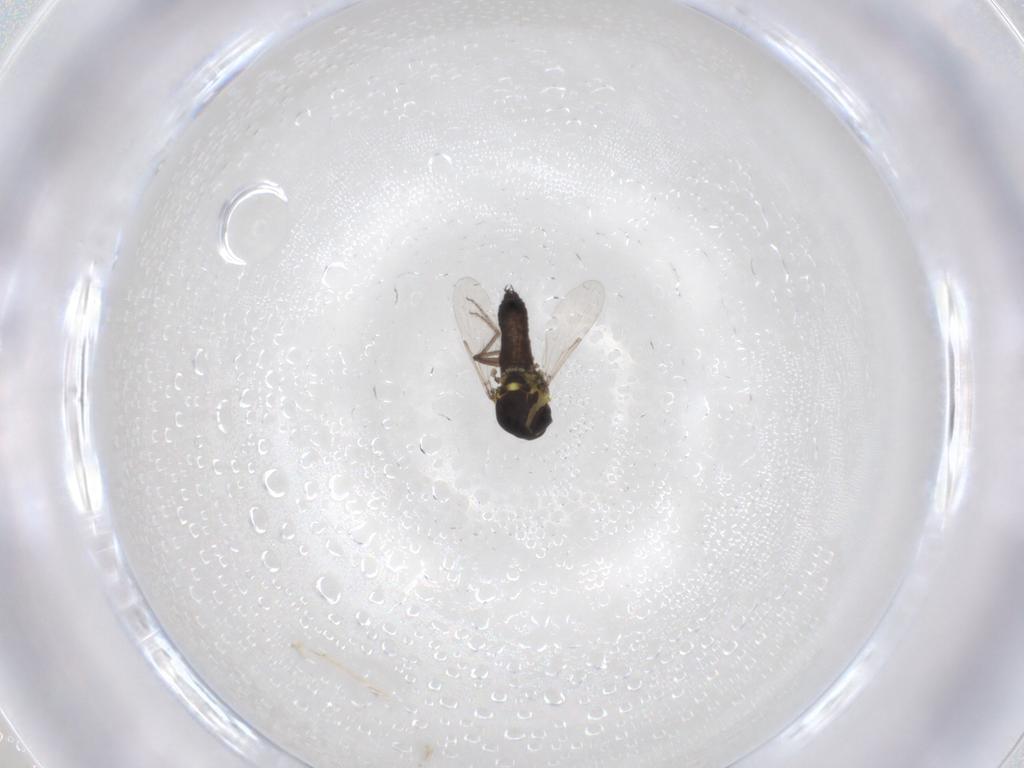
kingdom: Animalia
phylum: Arthropoda
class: Insecta
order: Diptera
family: Ceratopogonidae
